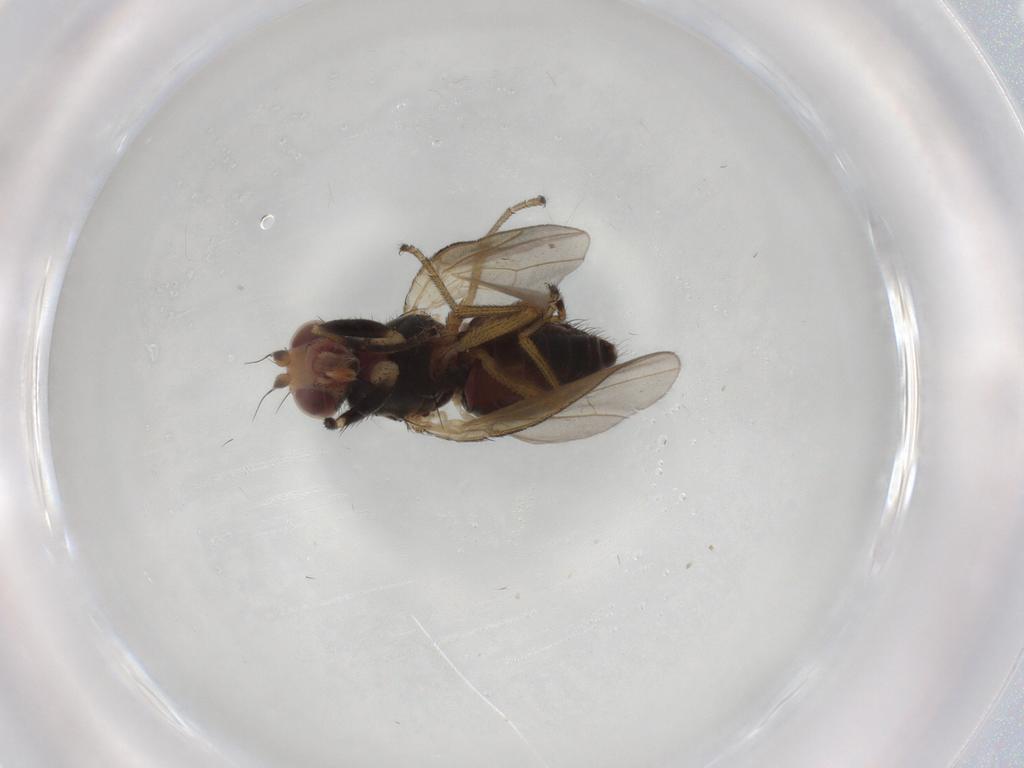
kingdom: Animalia
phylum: Arthropoda
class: Insecta
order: Diptera
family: Ulidiidae
